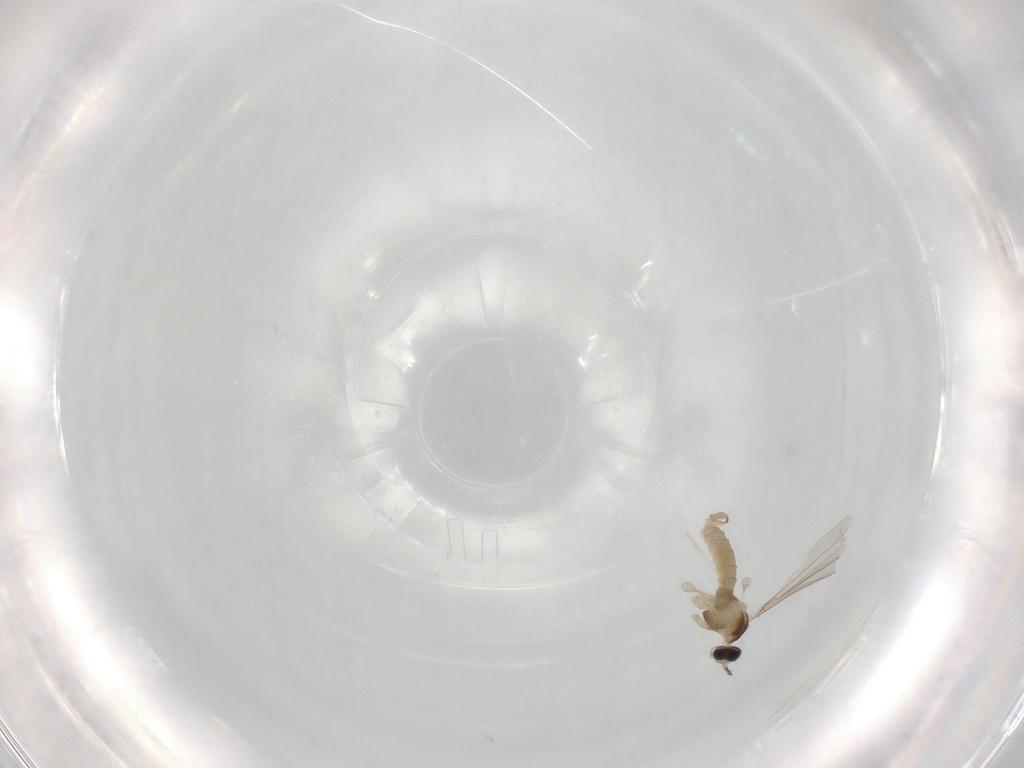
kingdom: Animalia
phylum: Arthropoda
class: Insecta
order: Diptera
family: Cecidomyiidae
